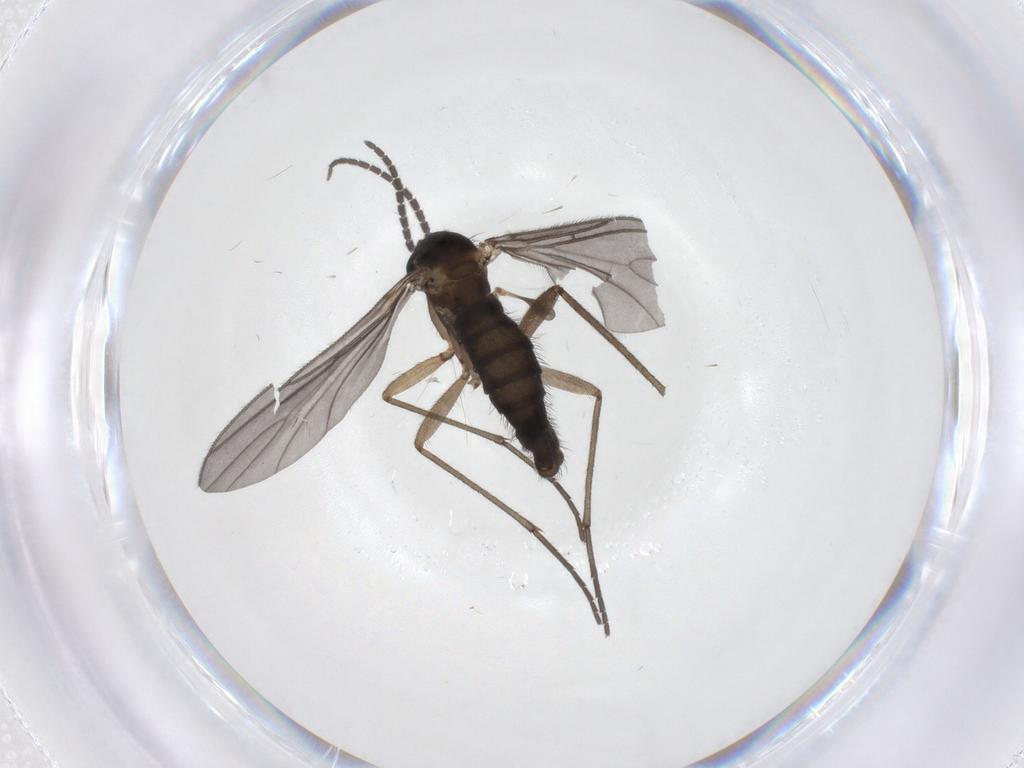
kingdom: Animalia
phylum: Arthropoda
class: Insecta
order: Diptera
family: Sciaridae
